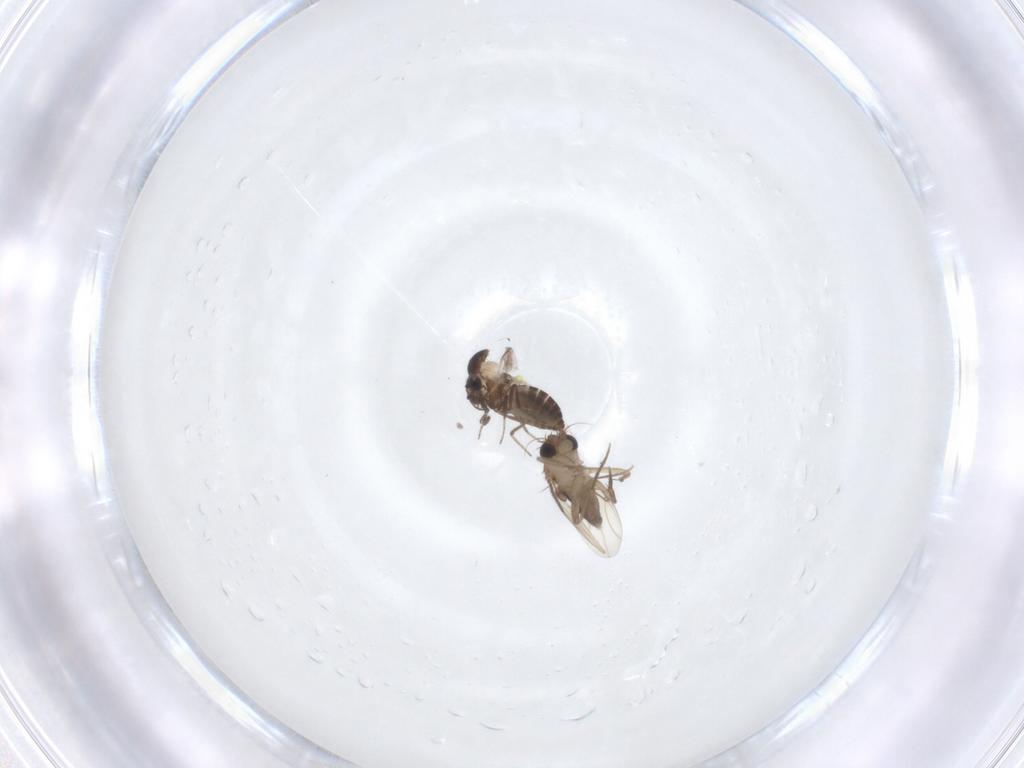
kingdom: Animalia
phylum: Arthropoda
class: Insecta
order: Diptera
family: Phoridae
